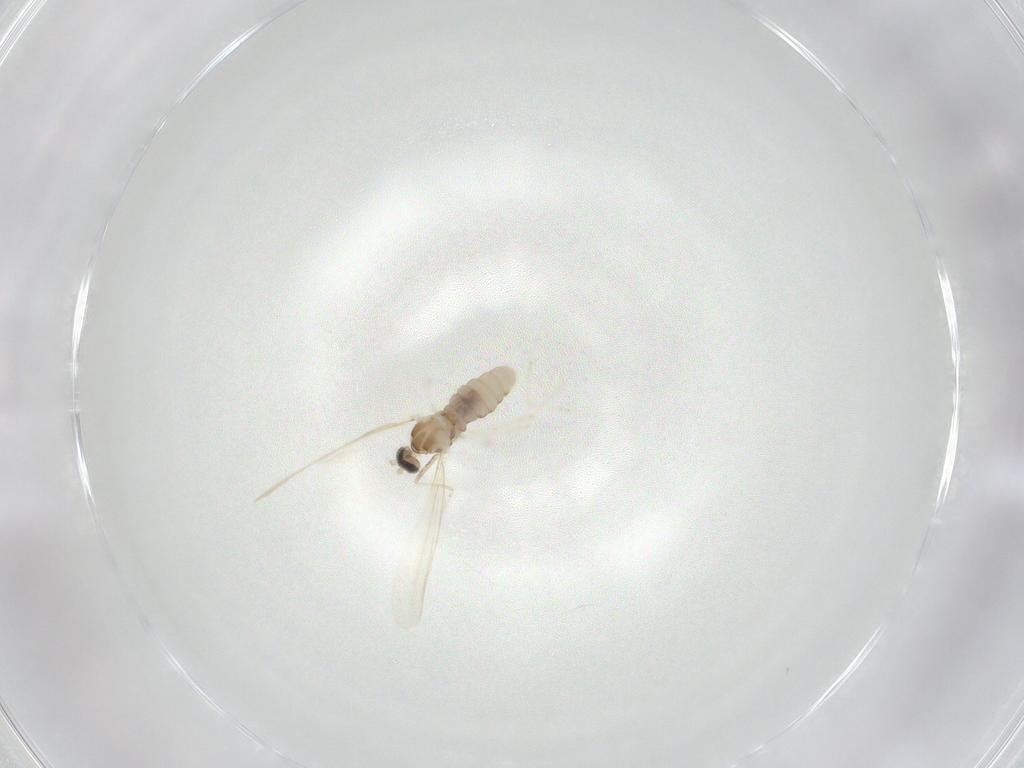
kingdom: Animalia
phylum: Arthropoda
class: Insecta
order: Diptera
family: Cecidomyiidae
